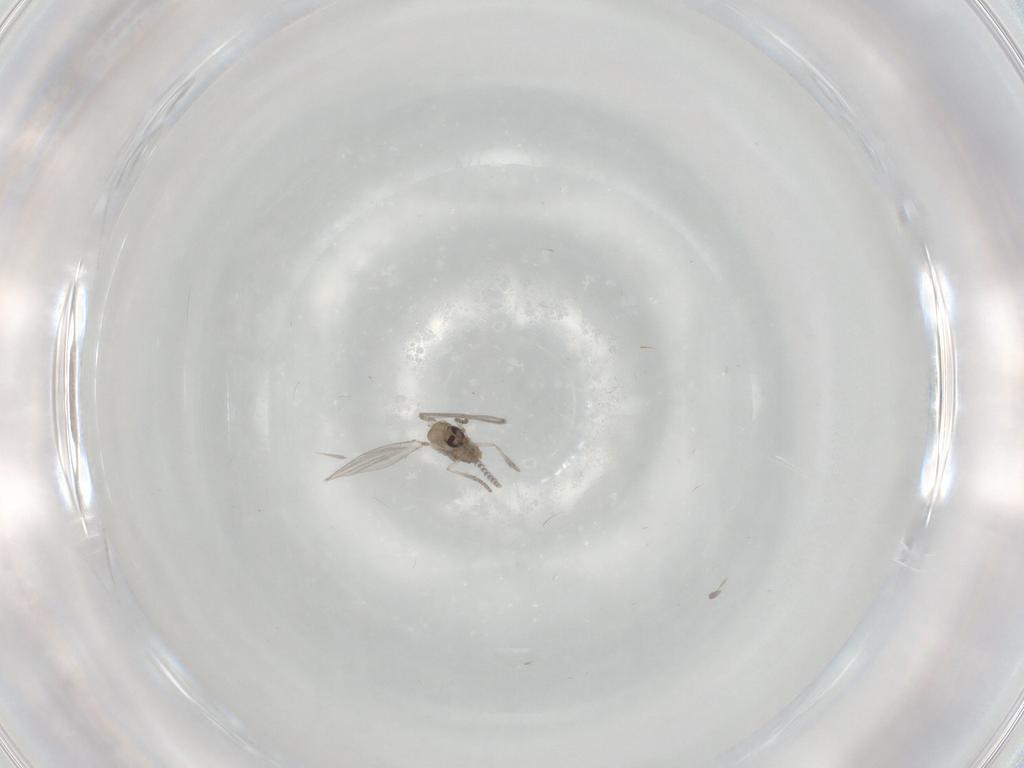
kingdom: Animalia
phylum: Arthropoda
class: Insecta
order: Diptera
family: Psychodidae
